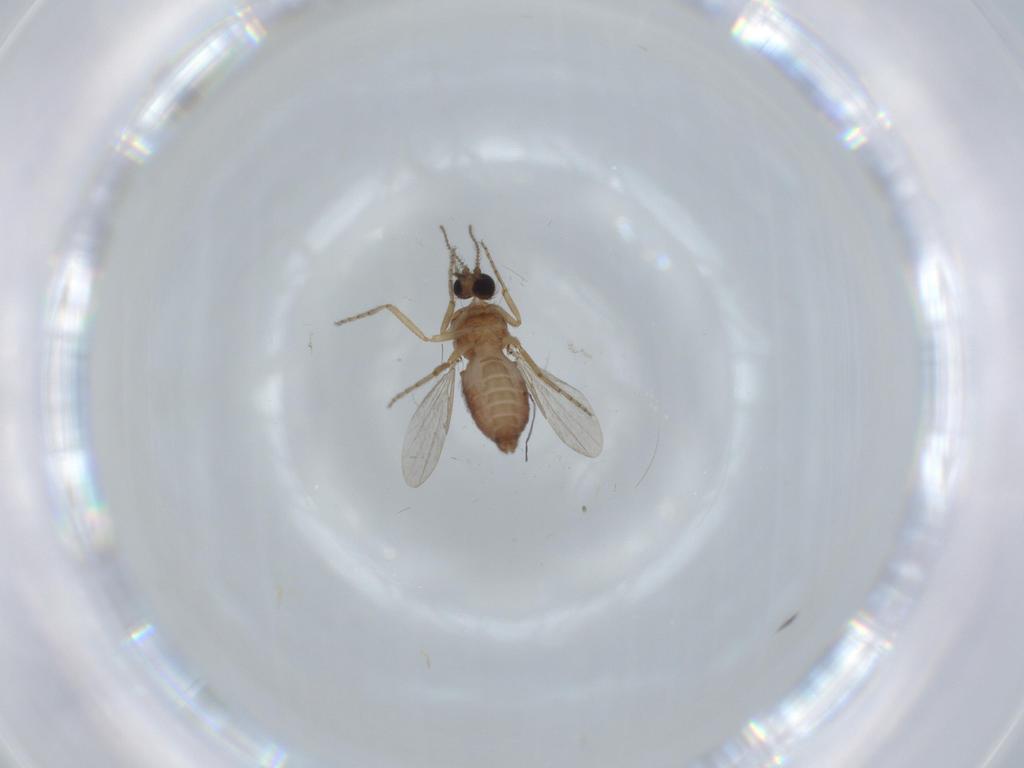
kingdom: Animalia
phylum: Arthropoda
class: Insecta
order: Diptera
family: Ceratopogonidae
